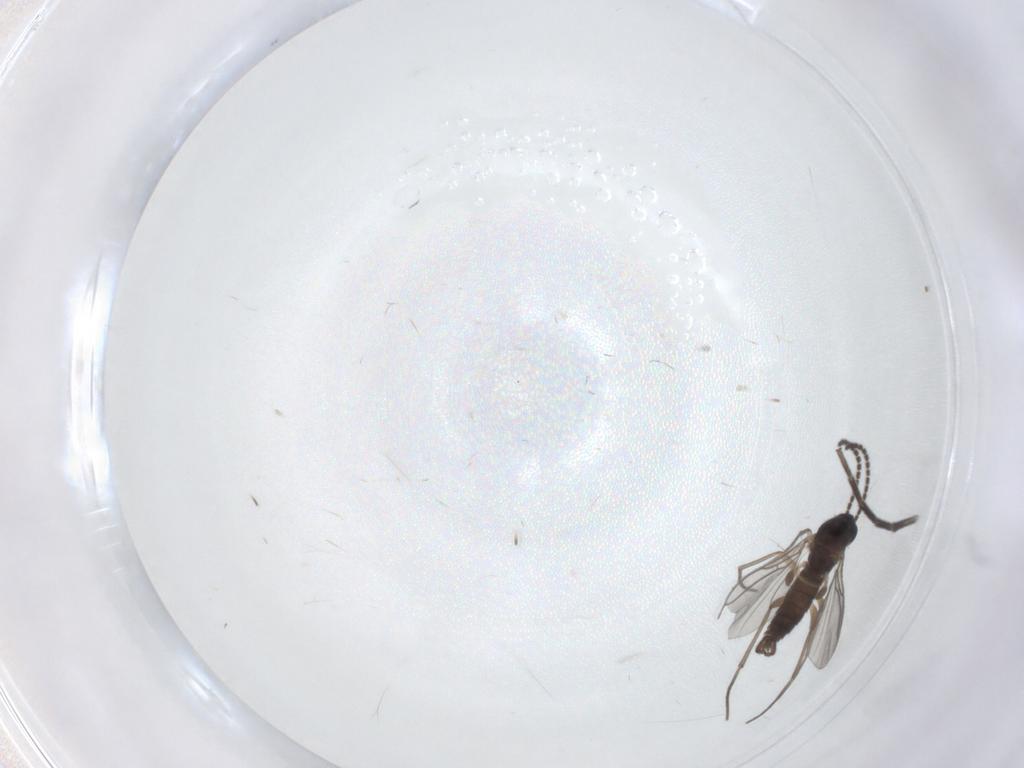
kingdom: Animalia
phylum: Arthropoda
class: Insecta
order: Diptera
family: Sciaridae
